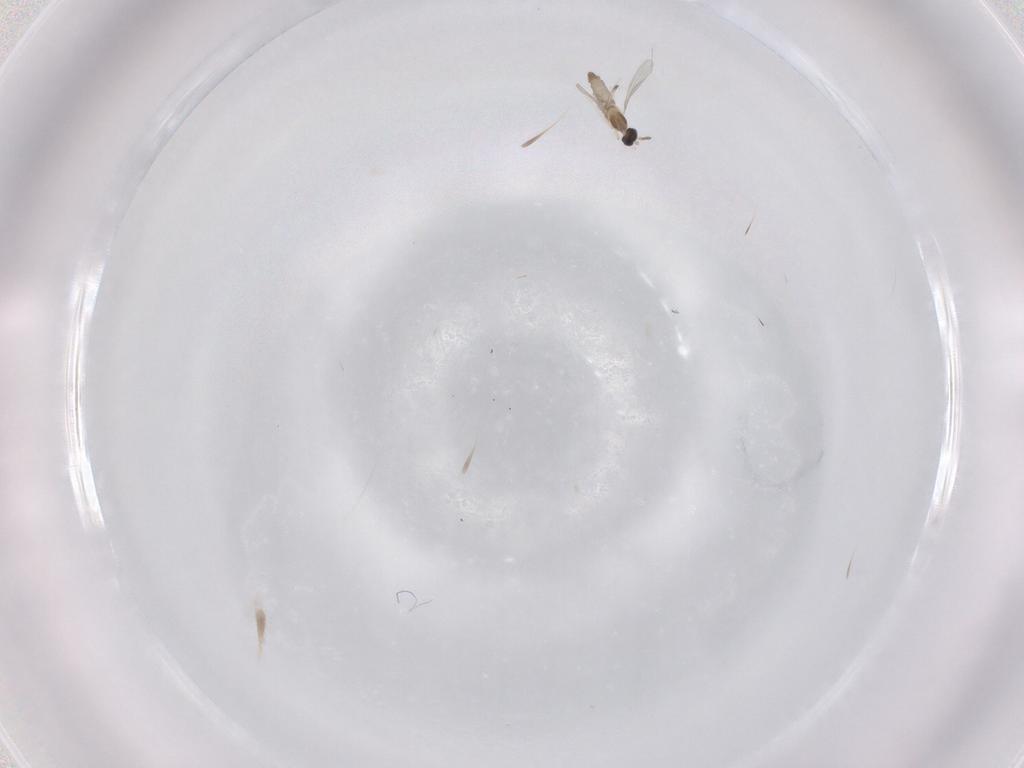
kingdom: Animalia
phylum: Arthropoda
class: Insecta
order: Diptera
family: Cecidomyiidae
